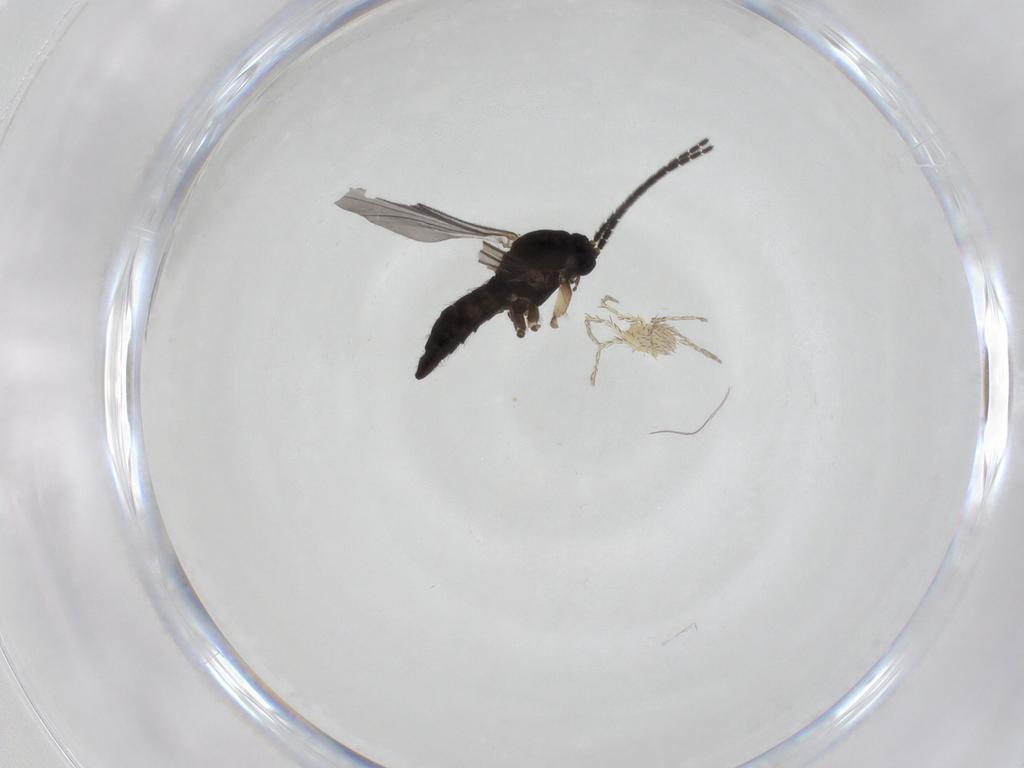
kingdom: Animalia
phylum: Arthropoda
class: Insecta
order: Diptera
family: Sciaridae
